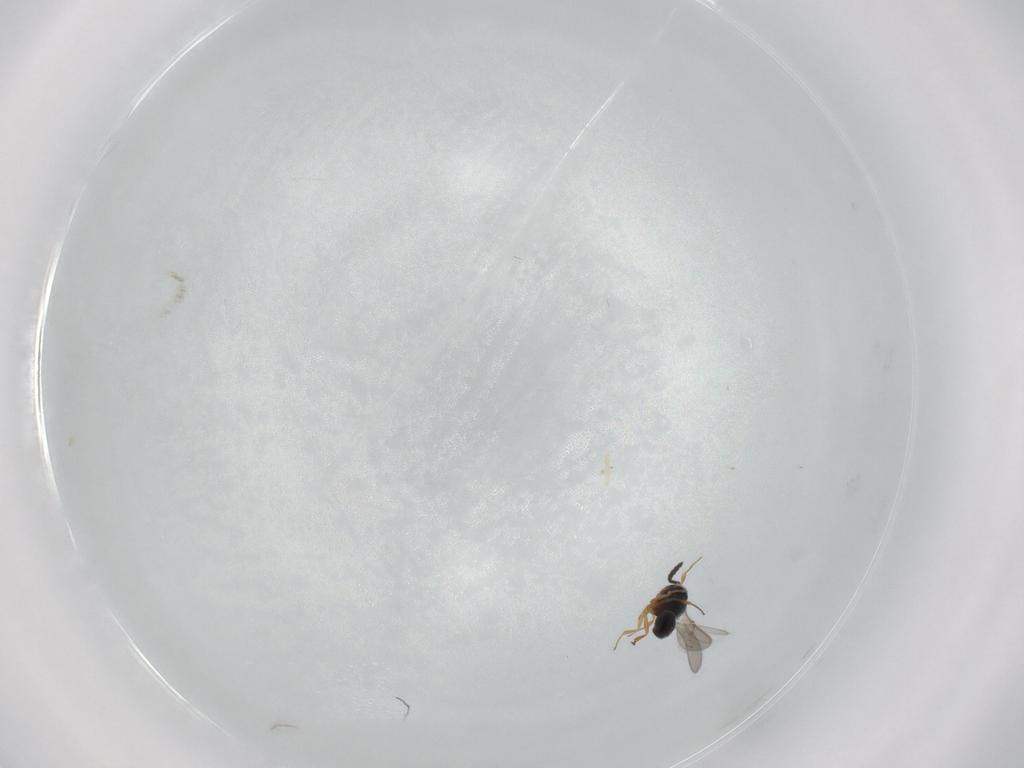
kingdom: Animalia
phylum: Arthropoda
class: Insecta
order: Hymenoptera
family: Scelionidae
